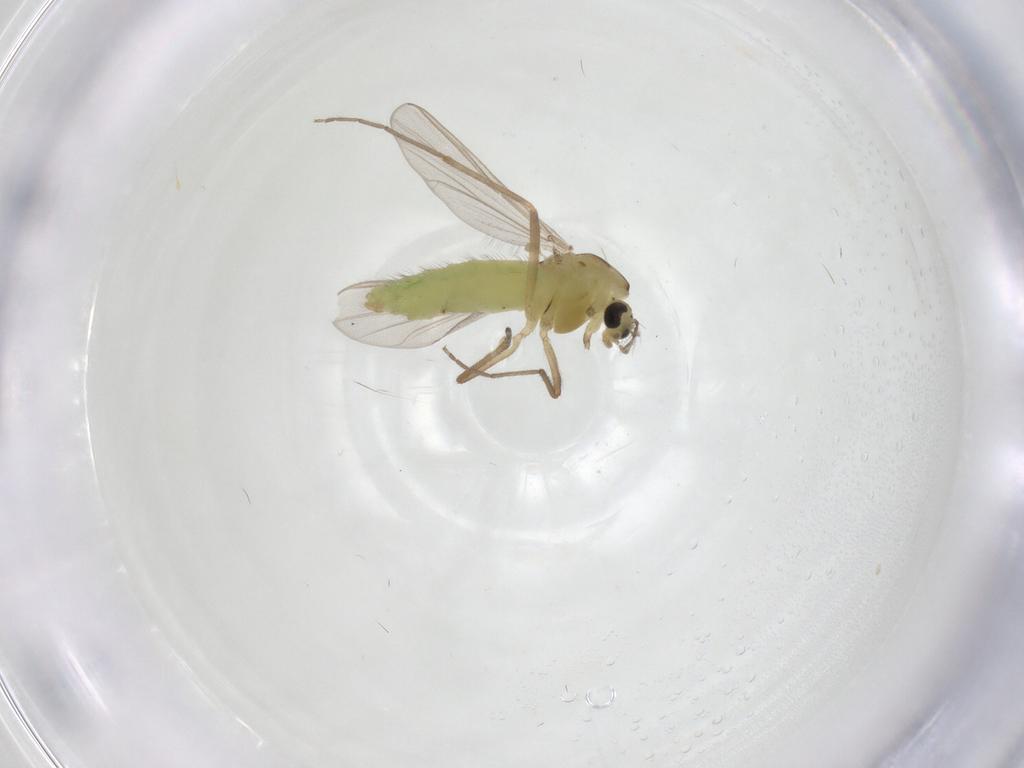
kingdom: Animalia
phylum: Arthropoda
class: Insecta
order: Diptera
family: Chironomidae
